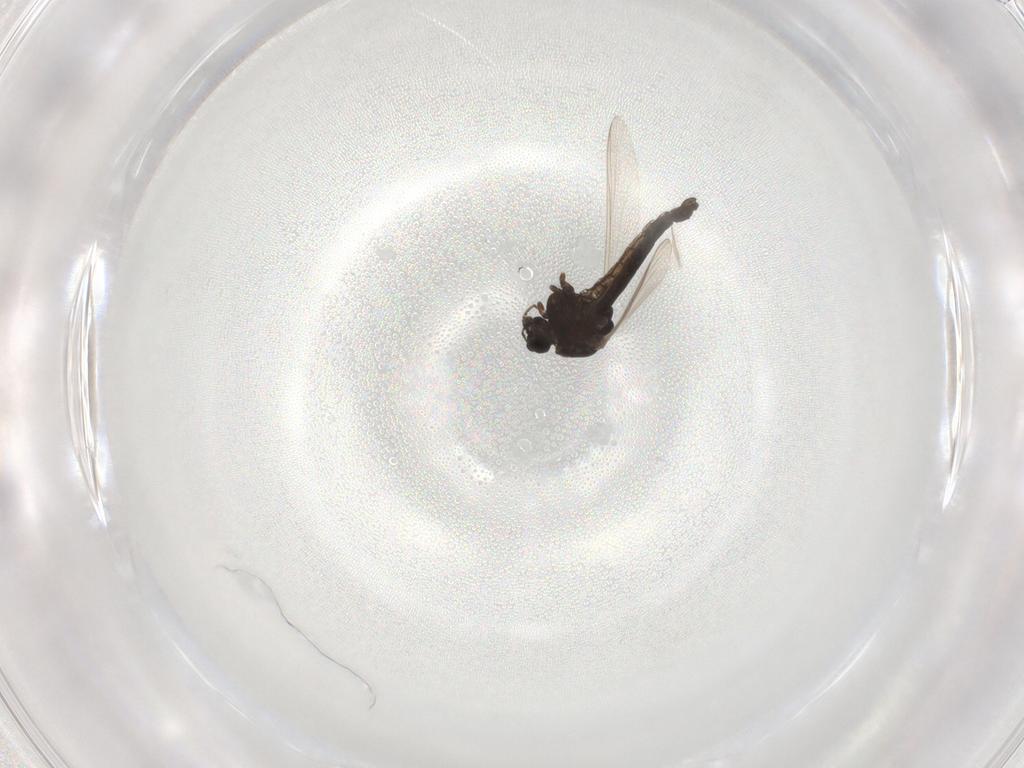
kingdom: Animalia
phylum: Arthropoda
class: Insecta
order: Diptera
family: Chironomidae
